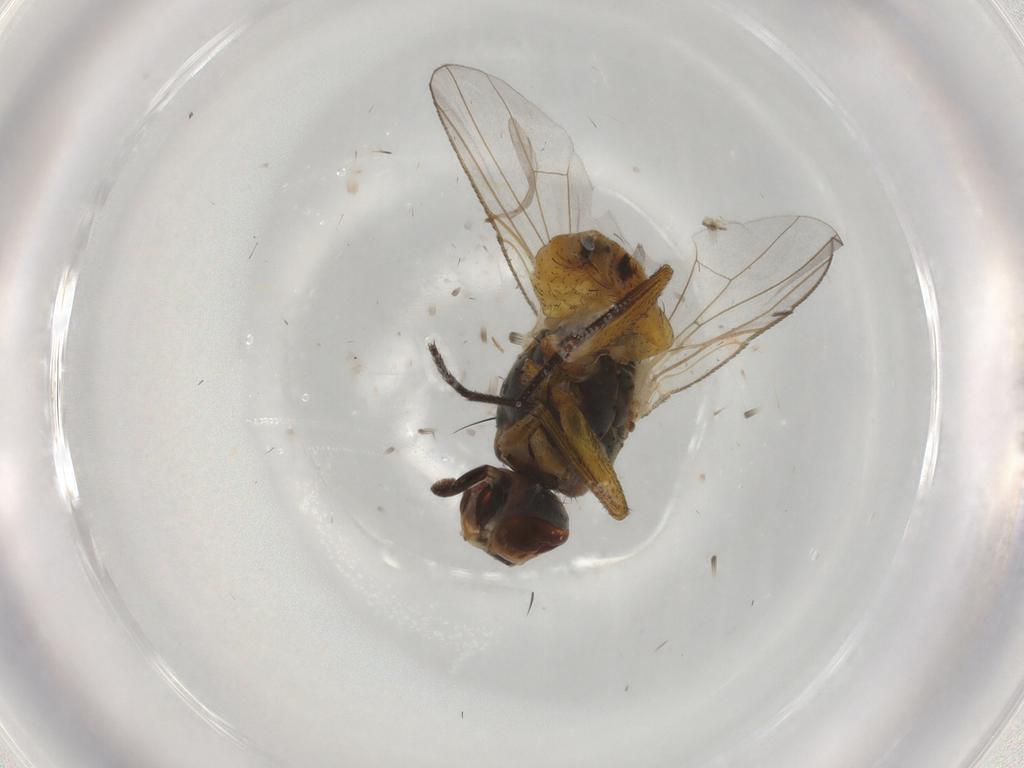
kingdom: Animalia
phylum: Arthropoda
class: Insecta
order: Diptera
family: Muscidae
